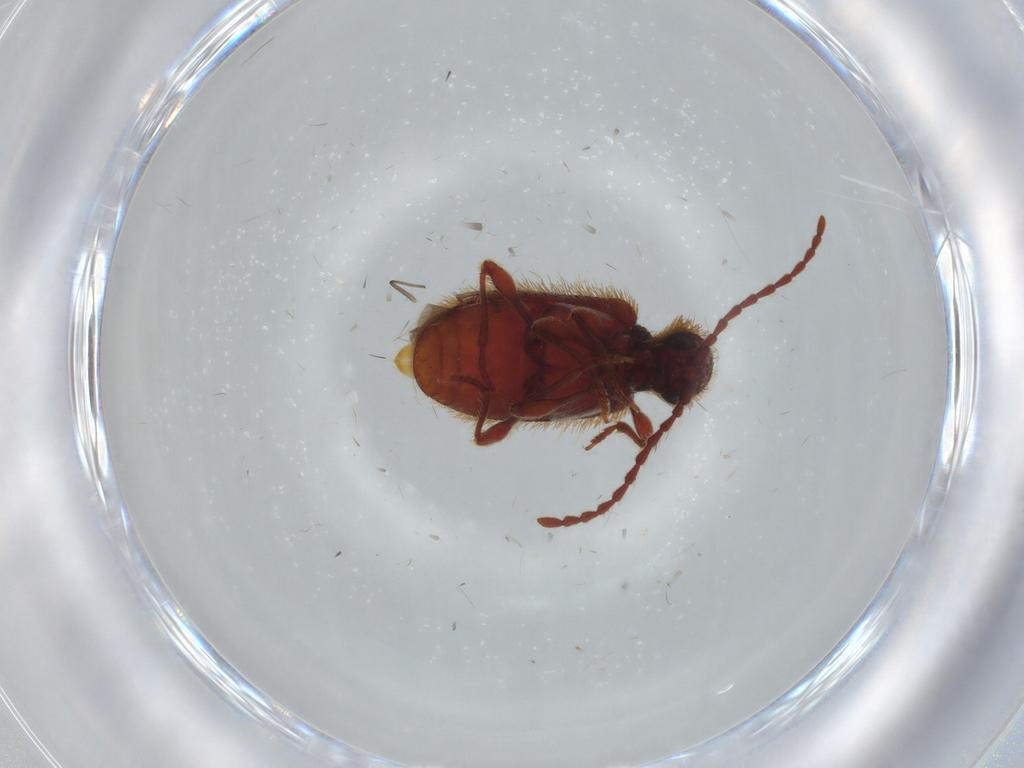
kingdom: Animalia
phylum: Arthropoda
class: Insecta
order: Coleoptera
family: Ptinidae
